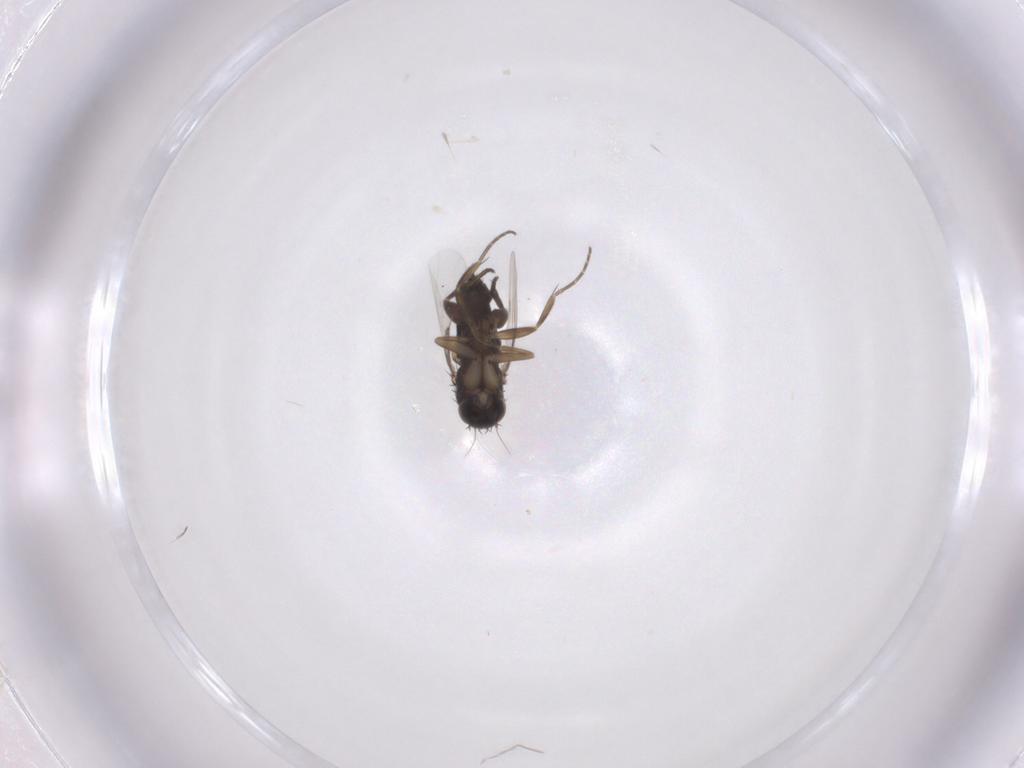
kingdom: Animalia
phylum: Arthropoda
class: Insecta
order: Diptera
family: Phoridae
